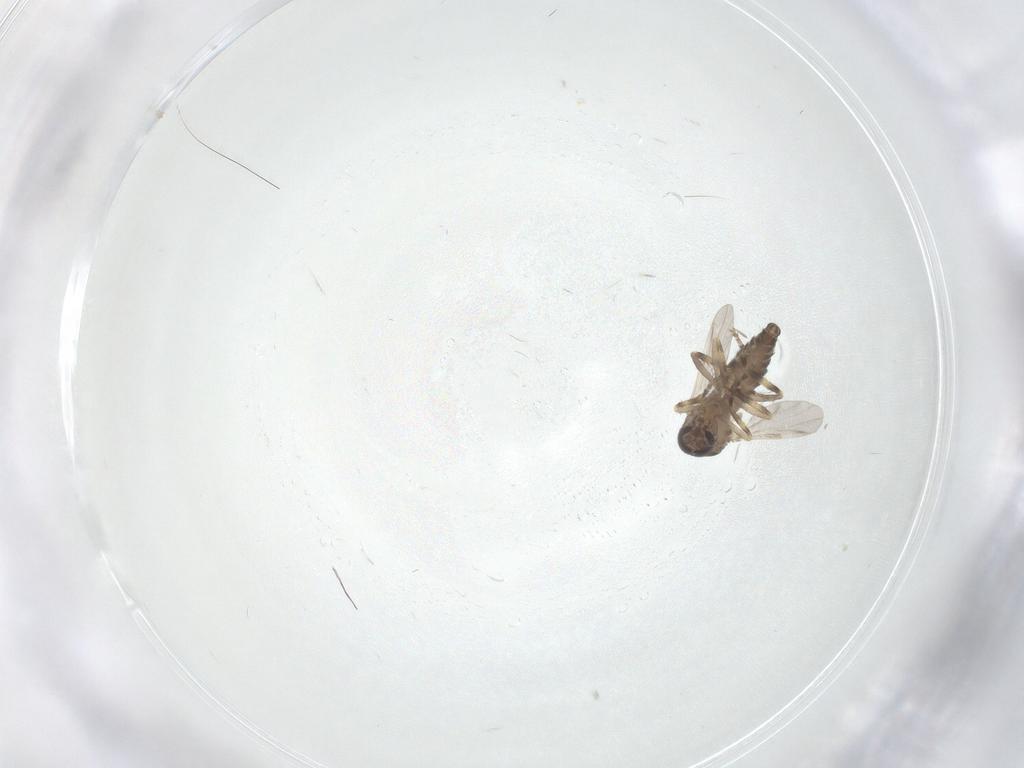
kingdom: Animalia
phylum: Arthropoda
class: Insecta
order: Diptera
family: Ceratopogonidae
